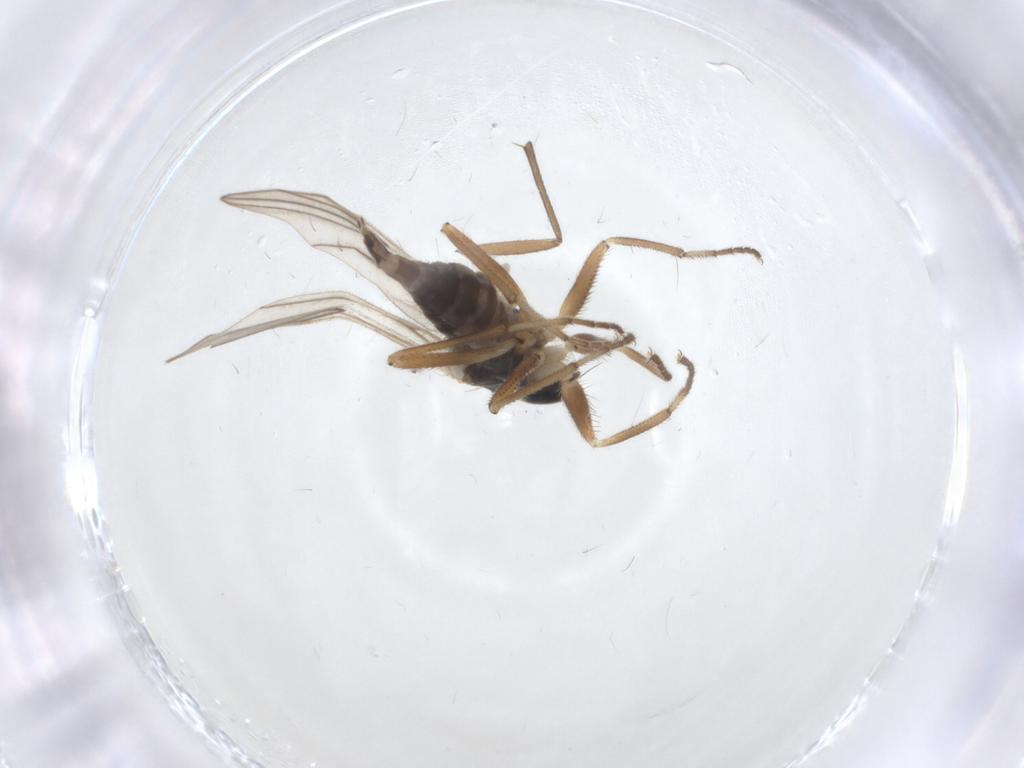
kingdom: Animalia
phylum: Arthropoda
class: Insecta
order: Diptera
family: Hybotidae
